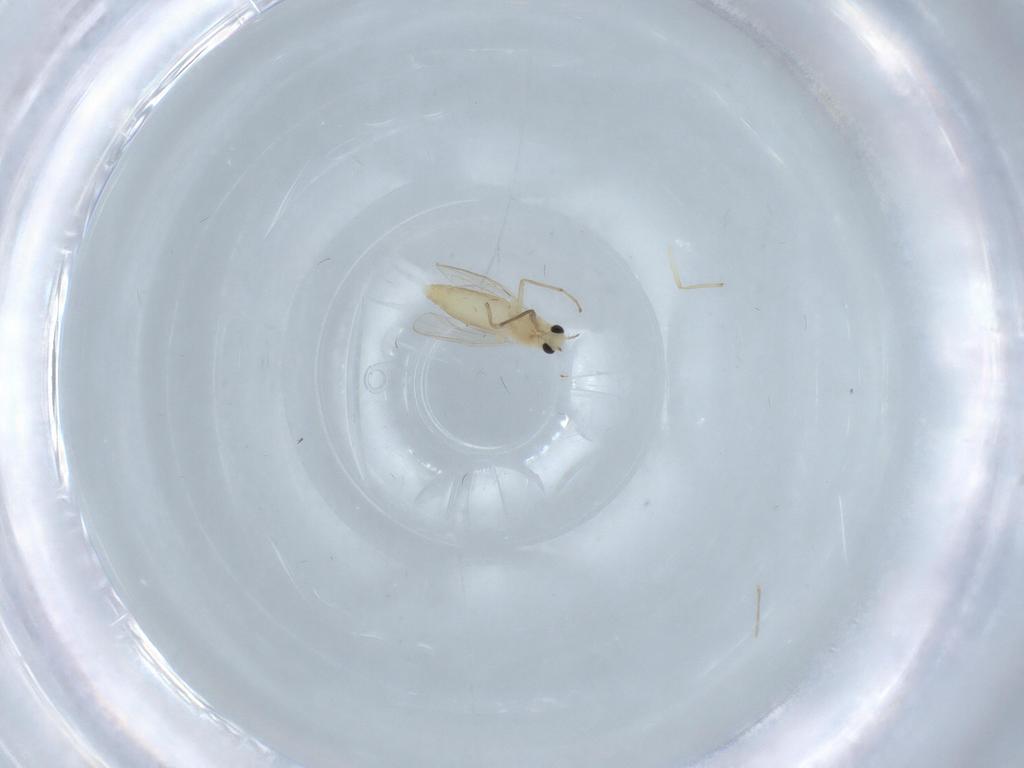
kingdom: Animalia
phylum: Arthropoda
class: Insecta
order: Diptera
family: Chironomidae
